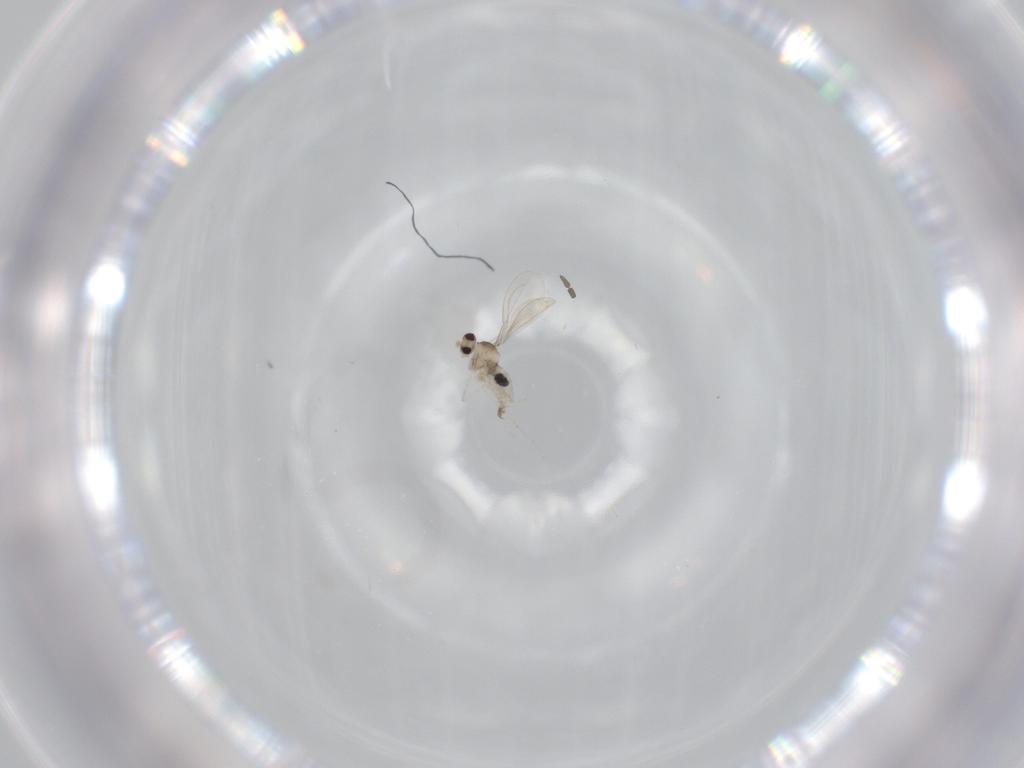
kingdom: Animalia
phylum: Arthropoda
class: Insecta
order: Diptera
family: Cecidomyiidae
